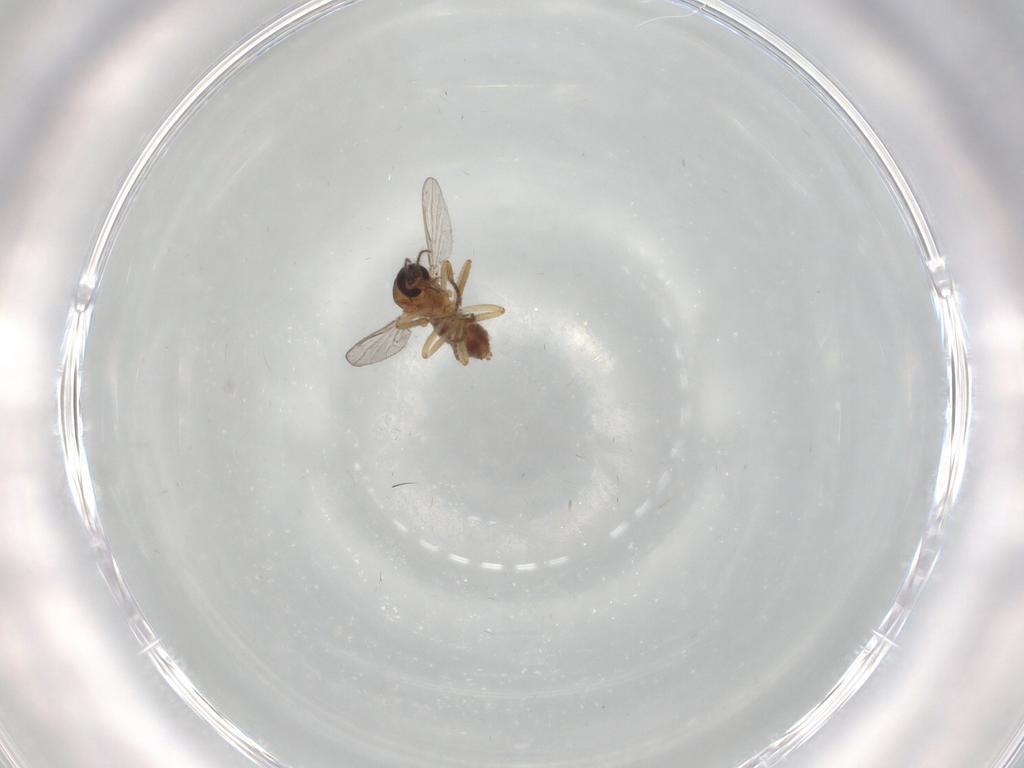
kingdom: Animalia
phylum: Arthropoda
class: Insecta
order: Diptera
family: Ceratopogonidae
